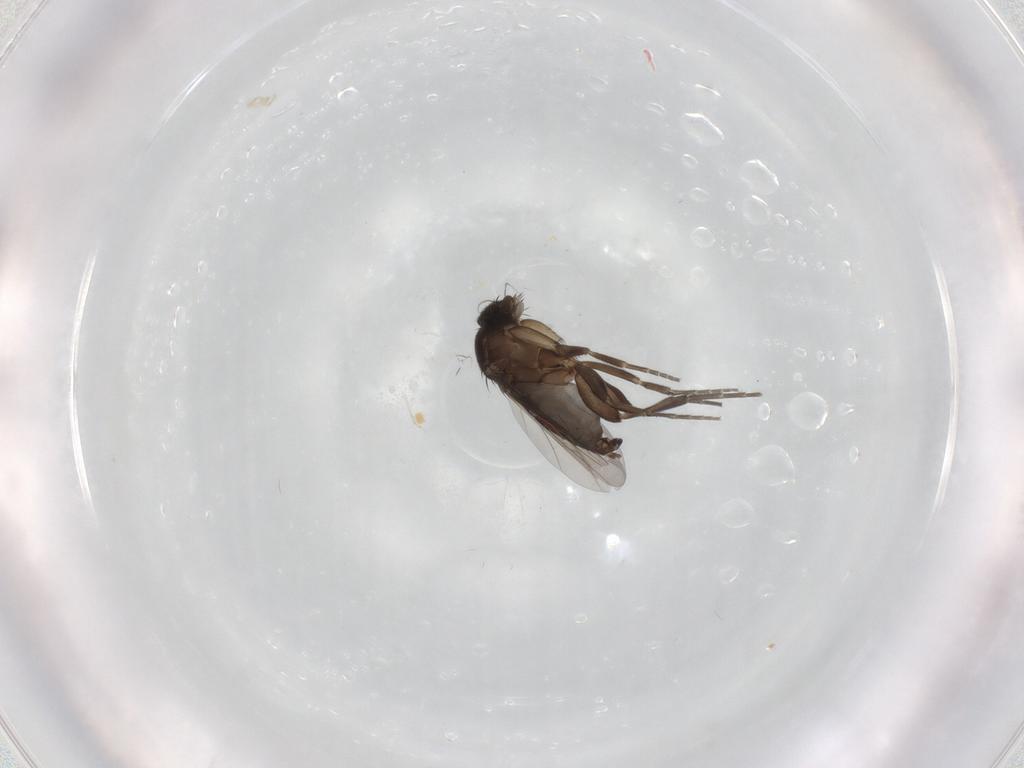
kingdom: Animalia
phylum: Arthropoda
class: Insecta
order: Diptera
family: Phoridae
